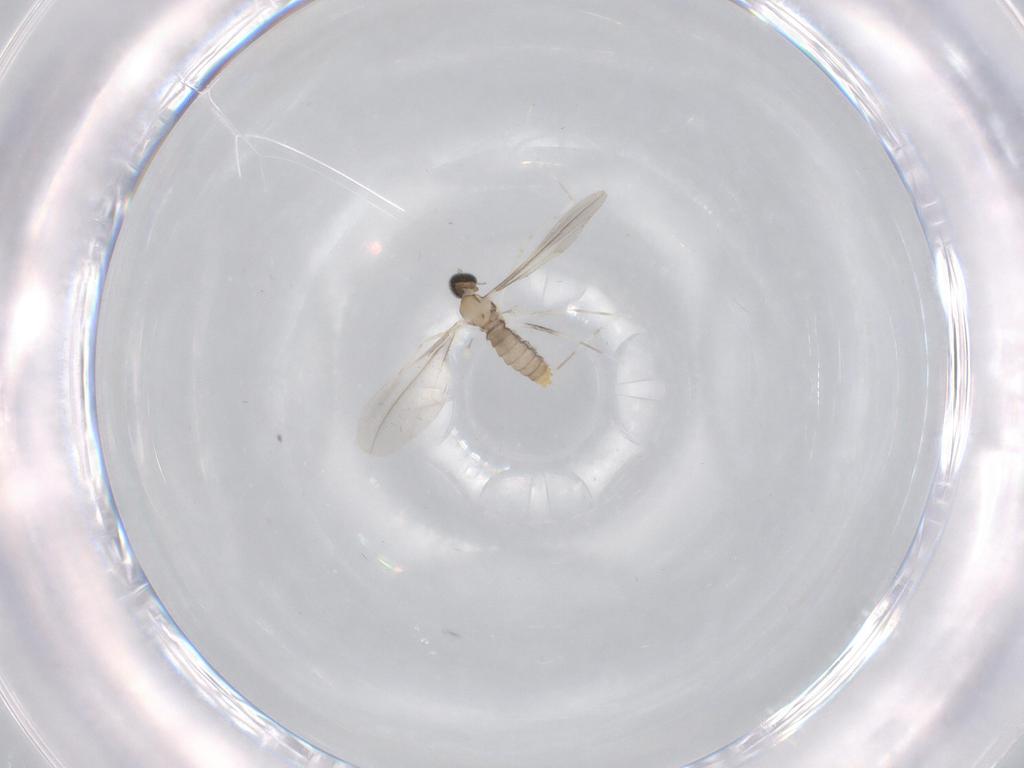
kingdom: Animalia
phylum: Arthropoda
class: Insecta
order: Diptera
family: Cecidomyiidae
